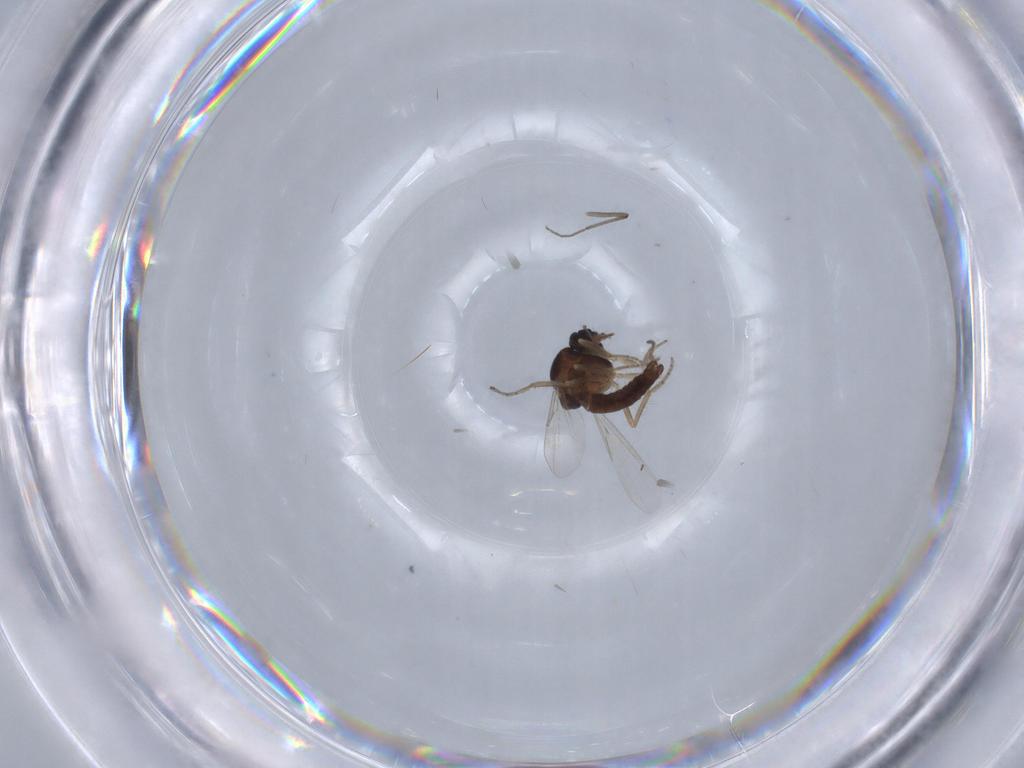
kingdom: Animalia
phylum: Arthropoda
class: Insecta
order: Diptera
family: Ceratopogonidae
